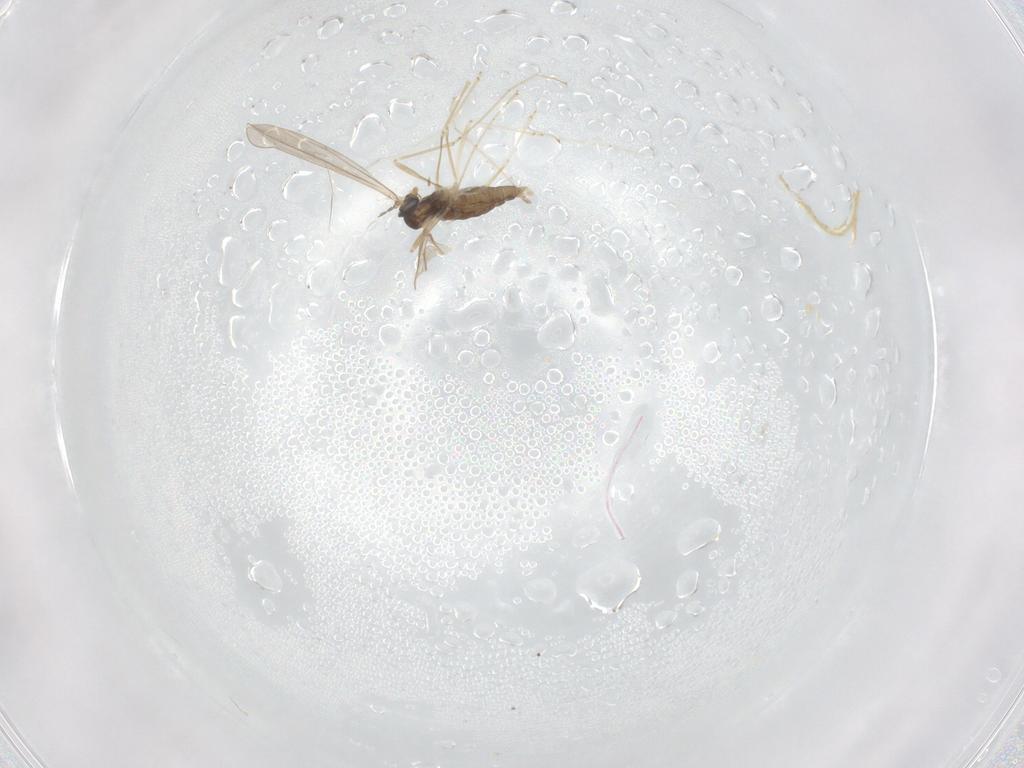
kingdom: Animalia
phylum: Arthropoda
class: Insecta
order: Diptera
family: Cecidomyiidae
